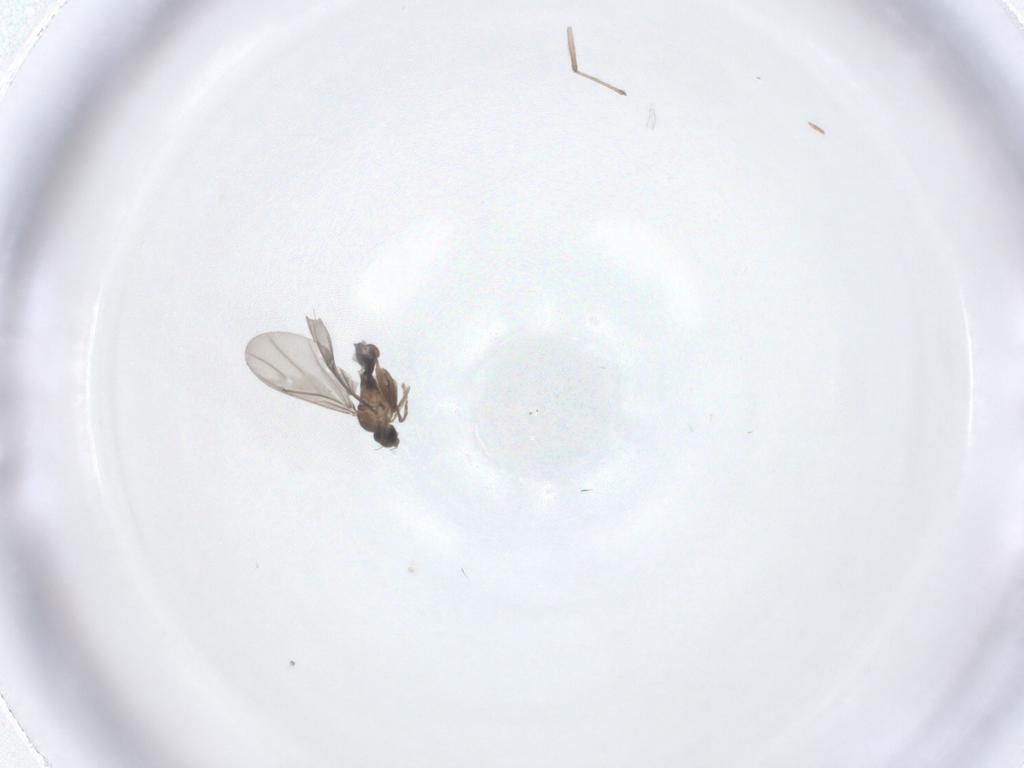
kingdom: Animalia
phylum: Arthropoda
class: Insecta
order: Diptera
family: Phoridae
